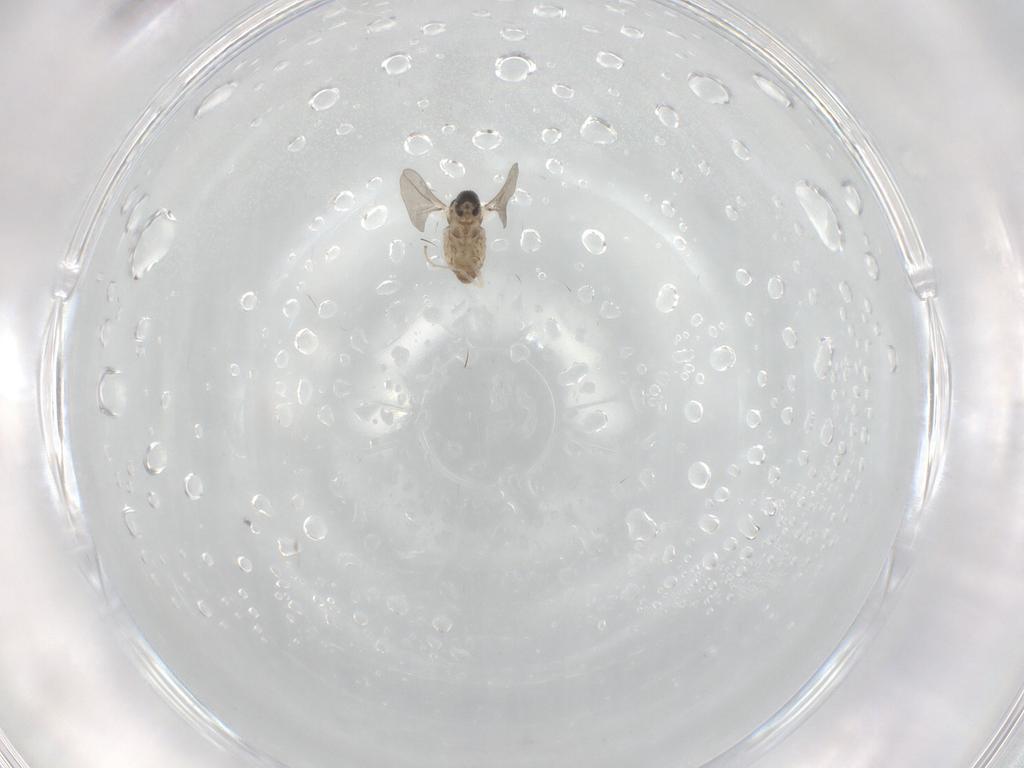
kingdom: Animalia
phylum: Arthropoda
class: Insecta
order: Diptera
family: Cecidomyiidae
